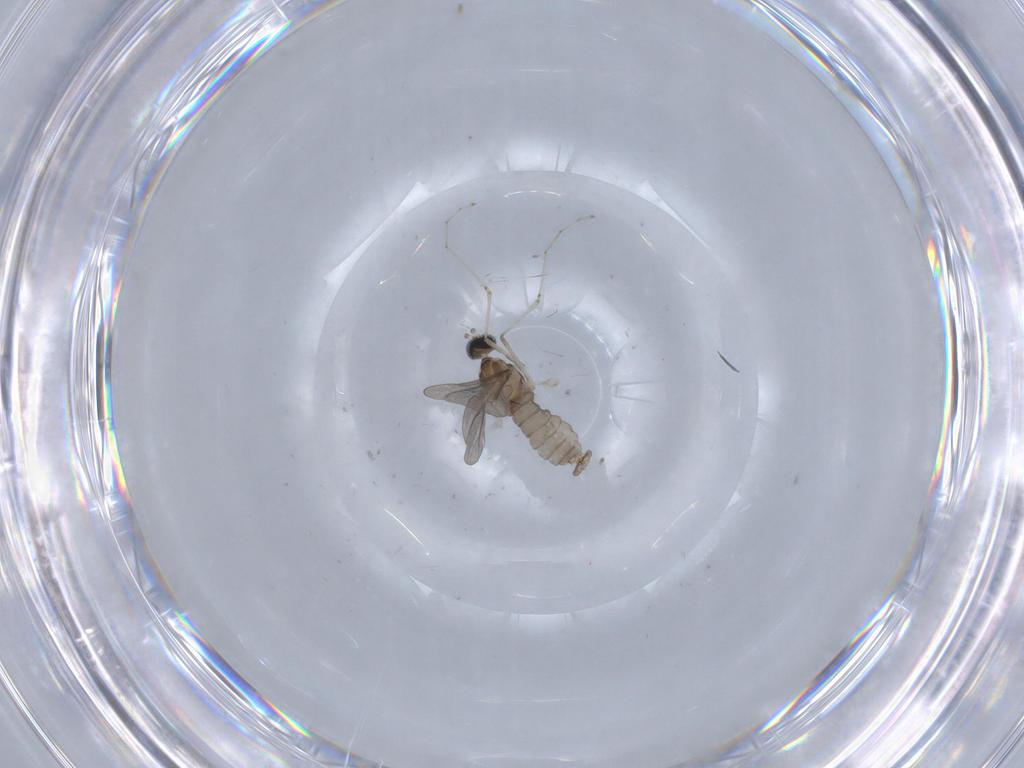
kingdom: Animalia
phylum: Arthropoda
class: Insecta
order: Diptera
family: Cecidomyiidae
